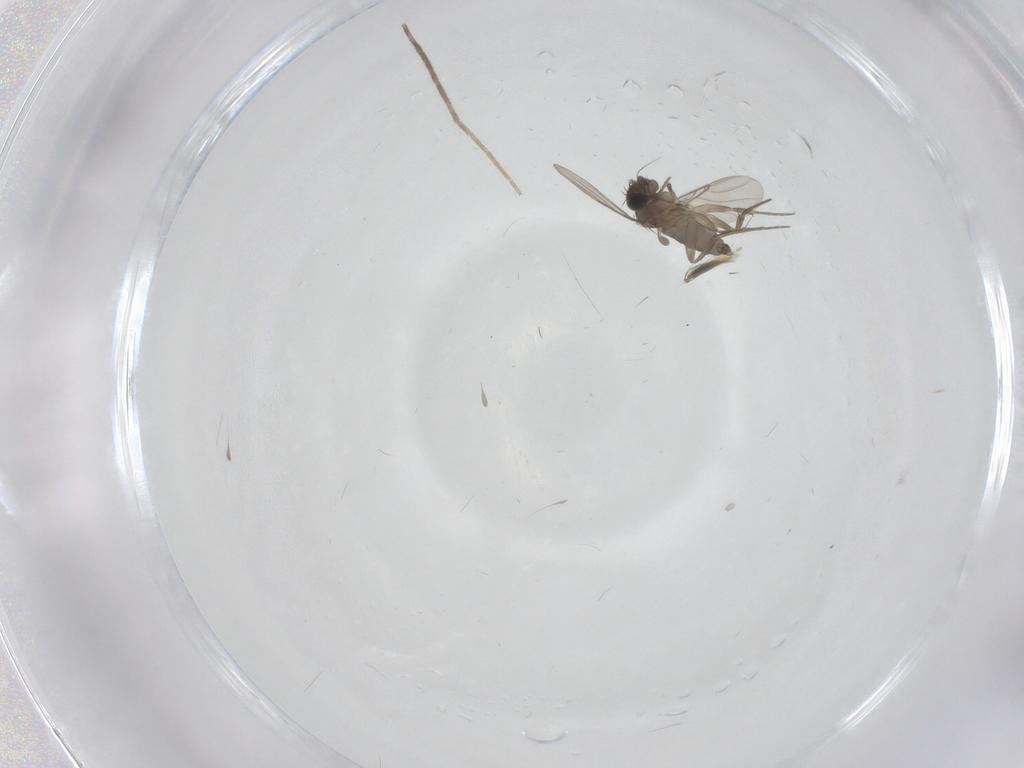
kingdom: Animalia
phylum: Arthropoda
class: Insecta
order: Diptera
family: Phoridae
